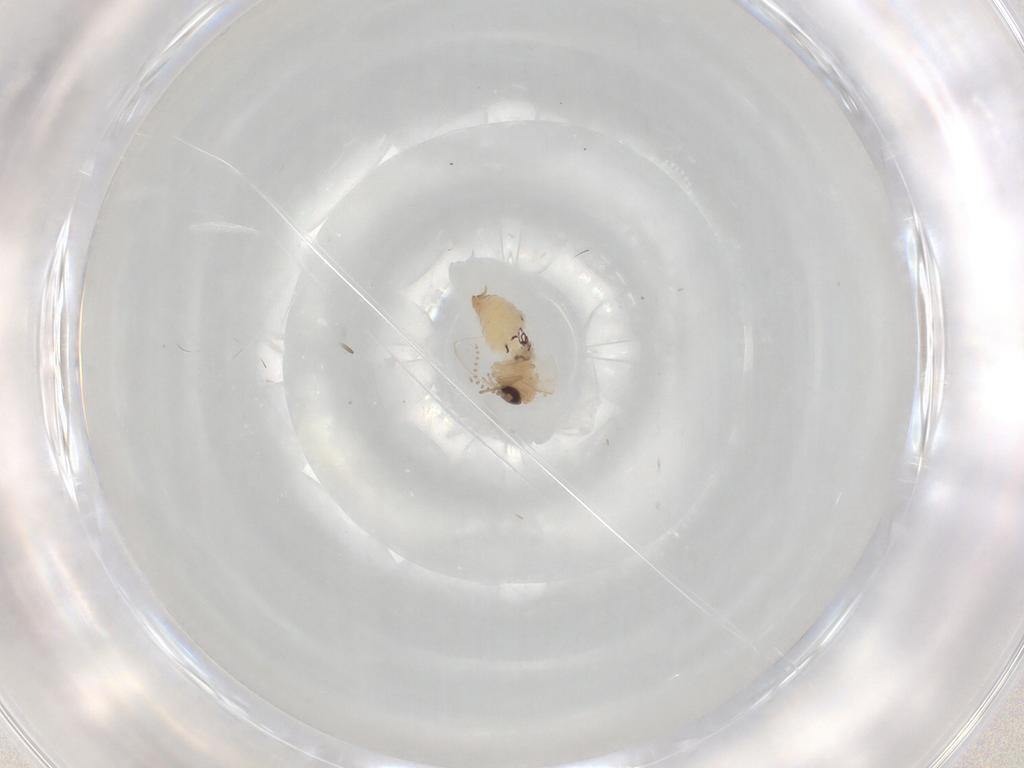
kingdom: Animalia
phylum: Arthropoda
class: Insecta
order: Diptera
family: Psychodidae
